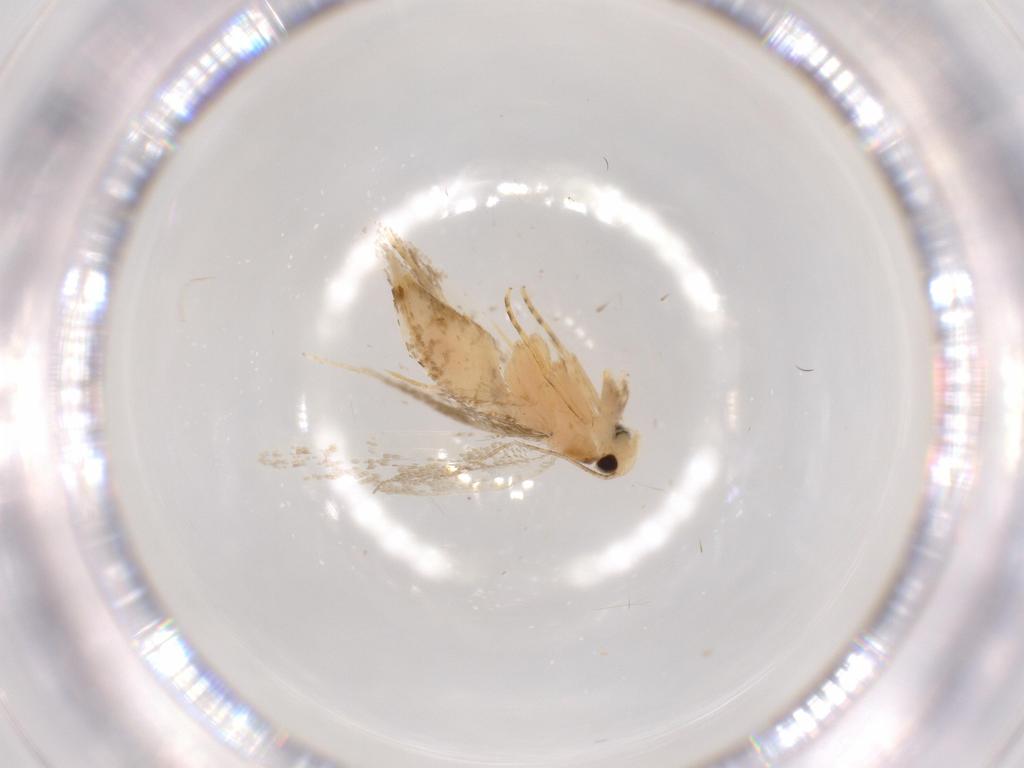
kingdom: Animalia
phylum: Arthropoda
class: Insecta
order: Lepidoptera
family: Tineidae
